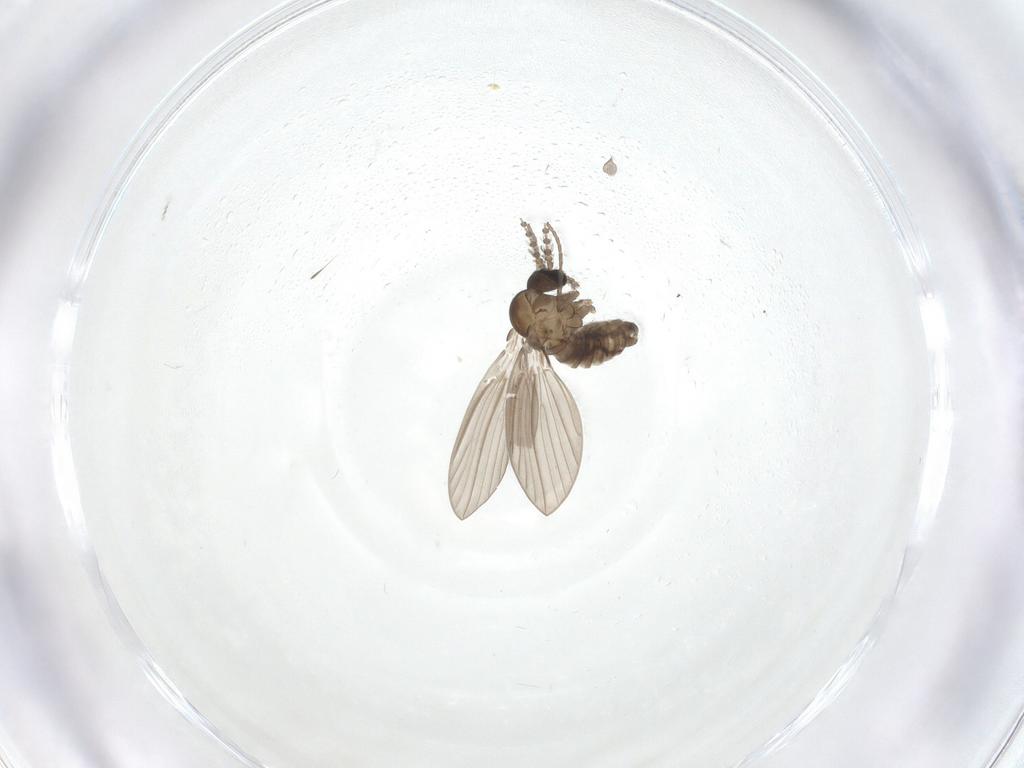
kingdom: Animalia
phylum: Arthropoda
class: Insecta
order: Diptera
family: Psychodidae
